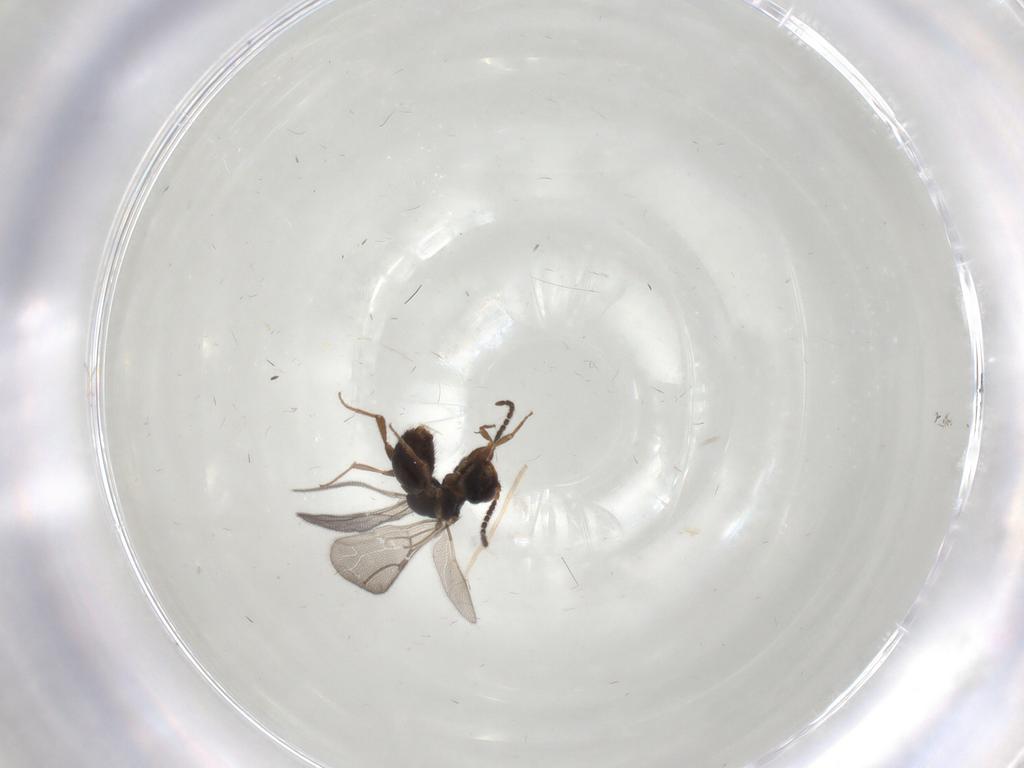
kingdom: Animalia
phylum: Arthropoda
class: Insecta
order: Hymenoptera
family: Bethylidae
